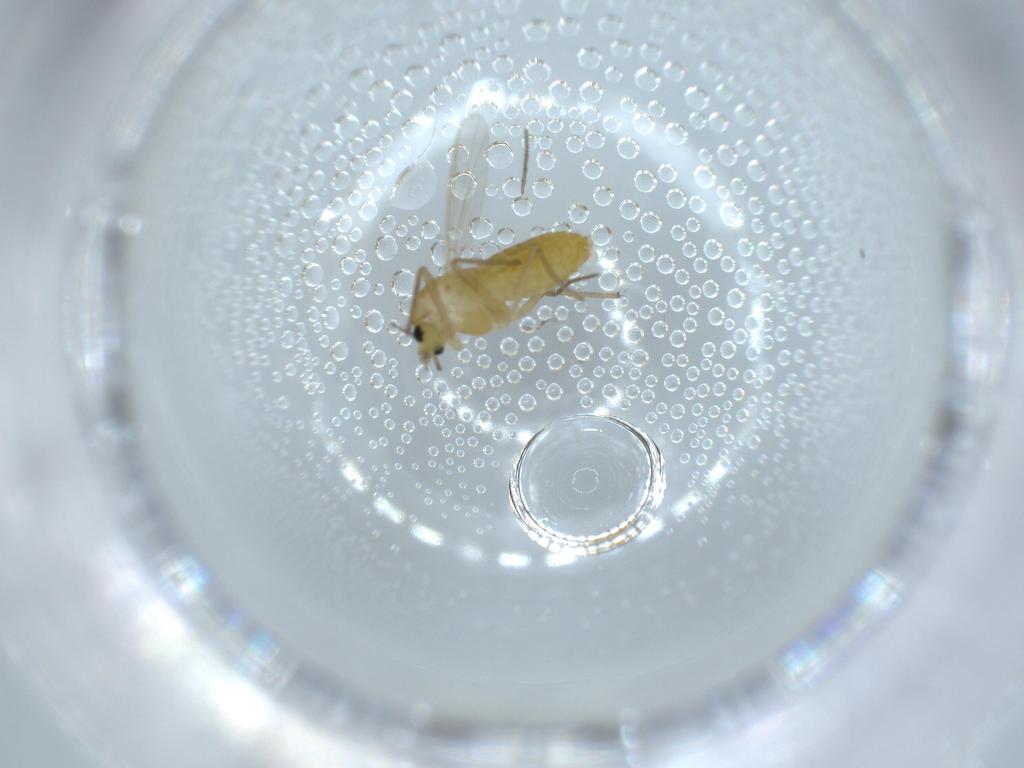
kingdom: Animalia
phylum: Arthropoda
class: Insecta
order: Diptera
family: Chironomidae
